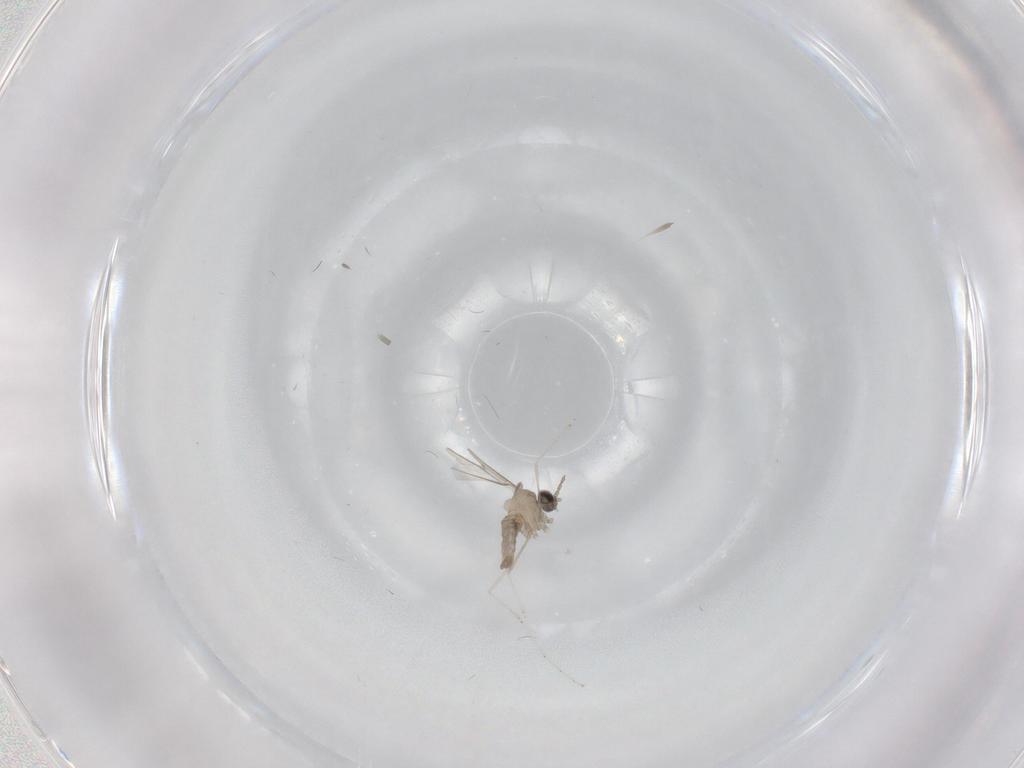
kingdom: Animalia
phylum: Arthropoda
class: Insecta
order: Diptera
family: Cecidomyiidae
